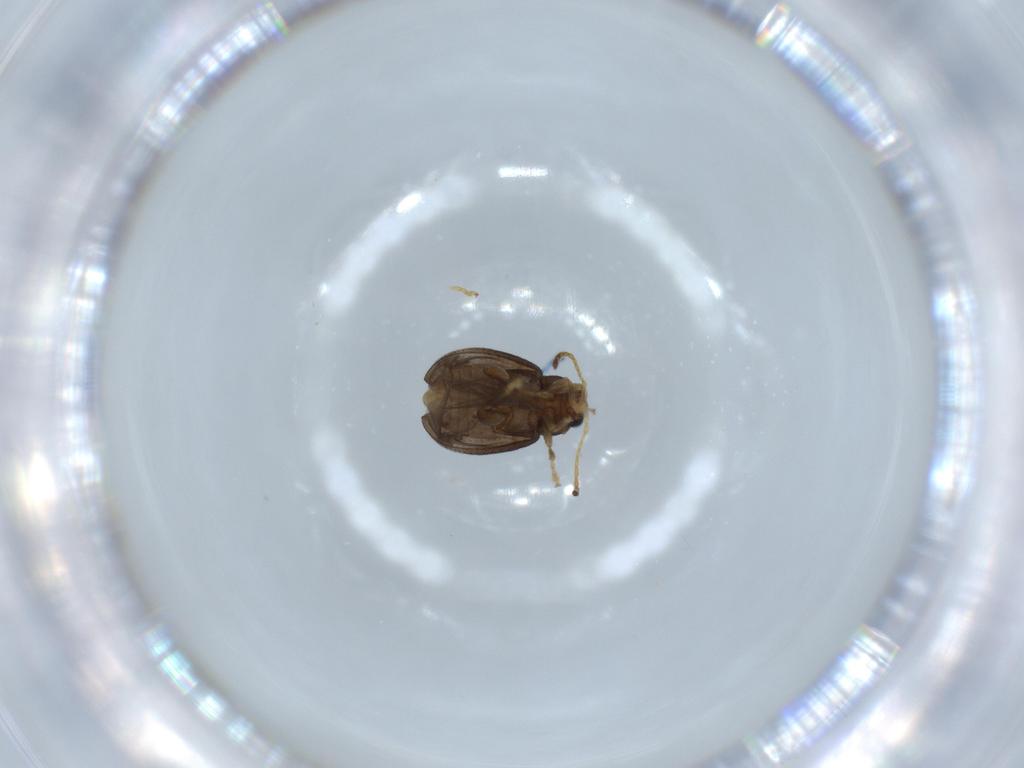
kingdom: Animalia
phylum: Arthropoda
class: Insecta
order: Coleoptera
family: Chrysomelidae
